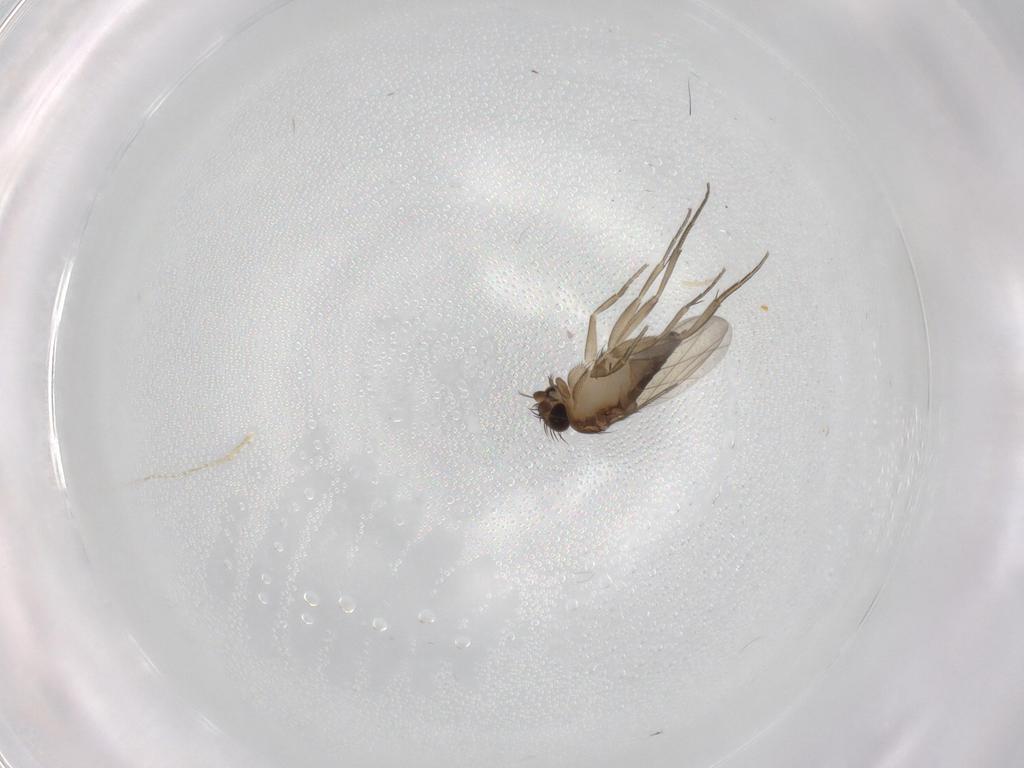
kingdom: Animalia
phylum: Arthropoda
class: Insecta
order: Diptera
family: Phoridae
